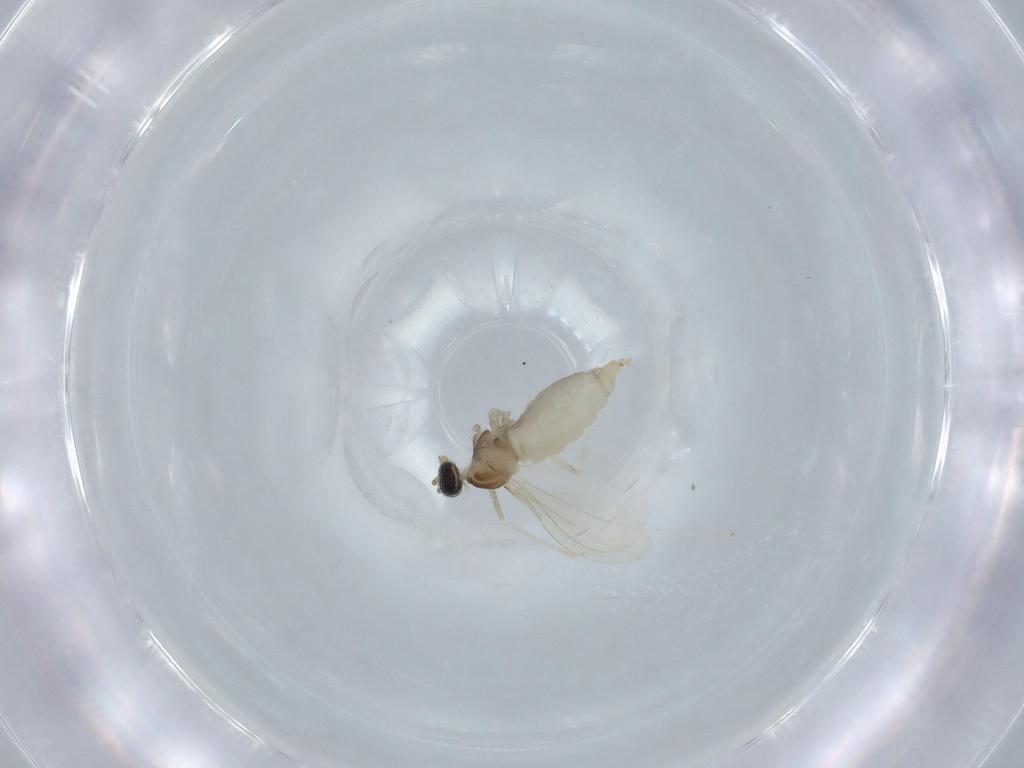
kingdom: Animalia
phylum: Arthropoda
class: Insecta
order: Diptera
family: Cecidomyiidae
